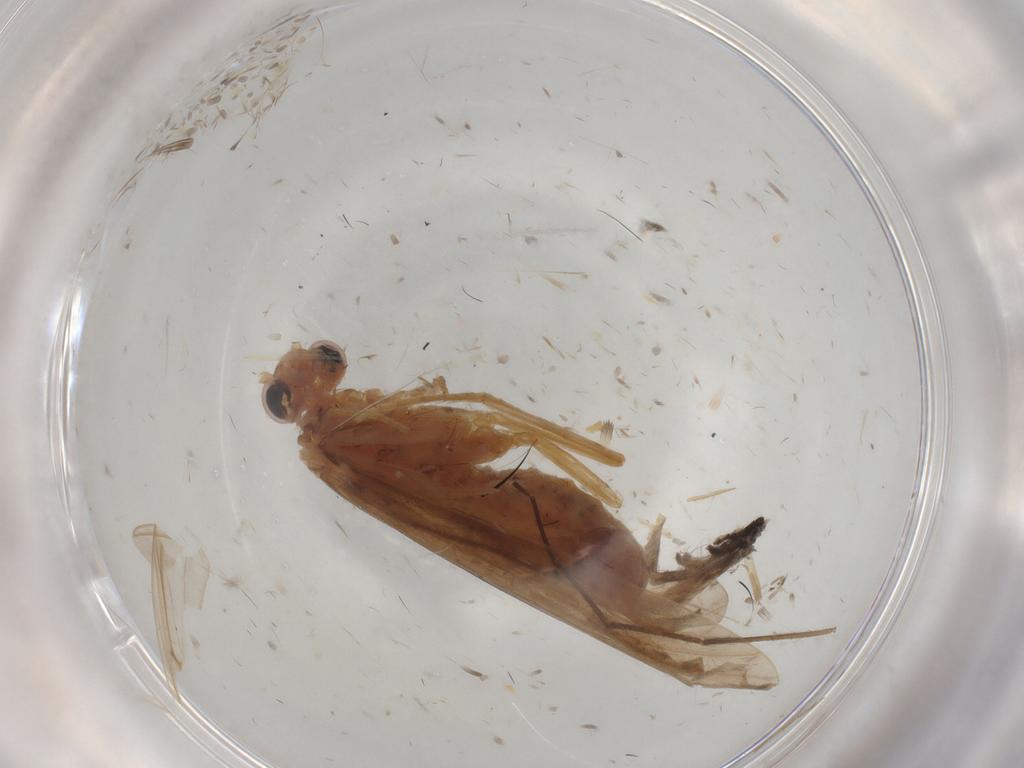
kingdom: Animalia
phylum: Arthropoda
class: Insecta
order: Trichoptera
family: Ecnomidae
